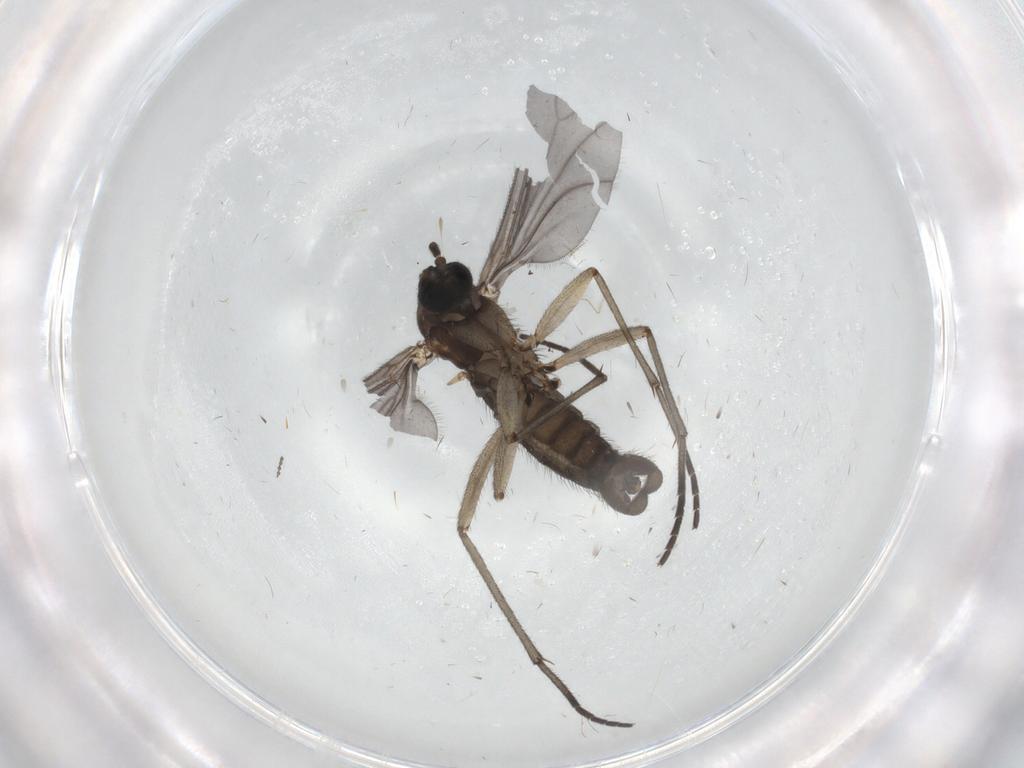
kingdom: Animalia
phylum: Arthropoda
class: Insecta
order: Diptera
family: Sciaridae
